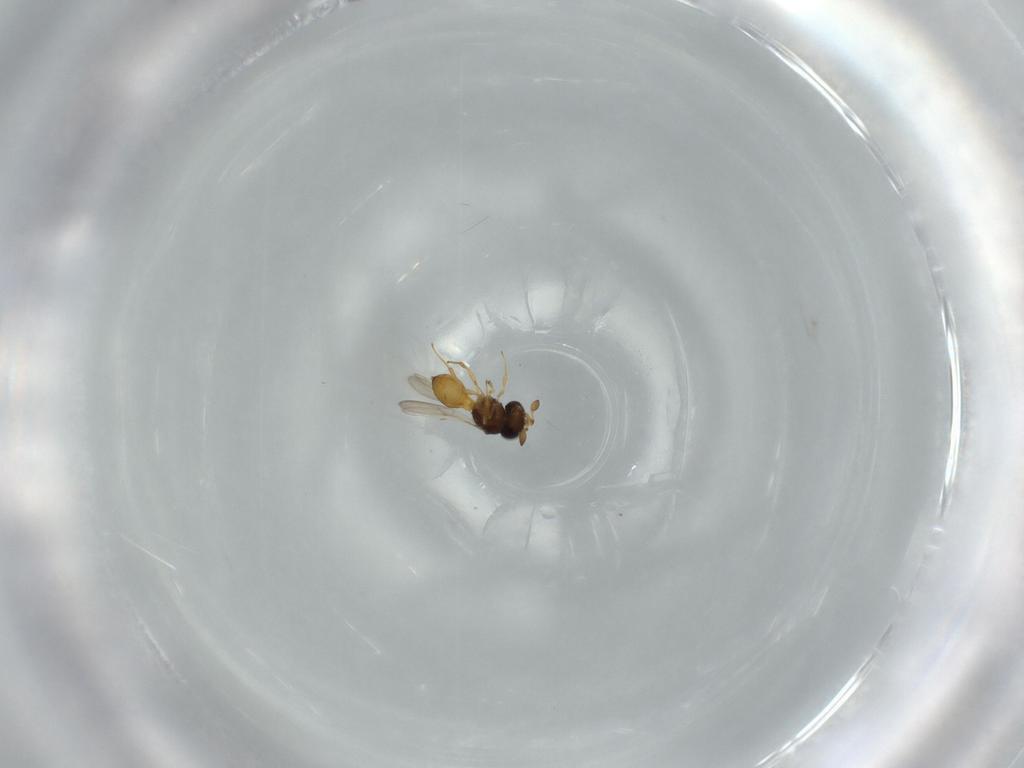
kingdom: Animalia
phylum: Arthropoda
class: Insecta
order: Hymenoptera
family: Scelionidae
